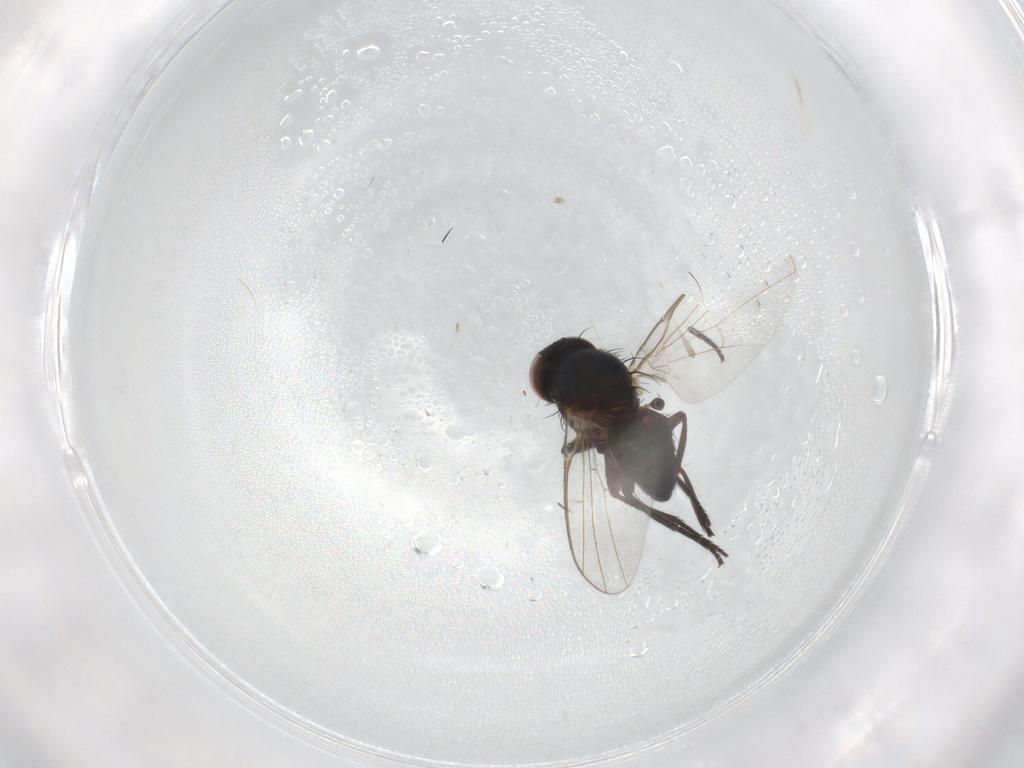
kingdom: Animalia
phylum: Arthropoda
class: Insecta
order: Diptera
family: Agromyzidae
